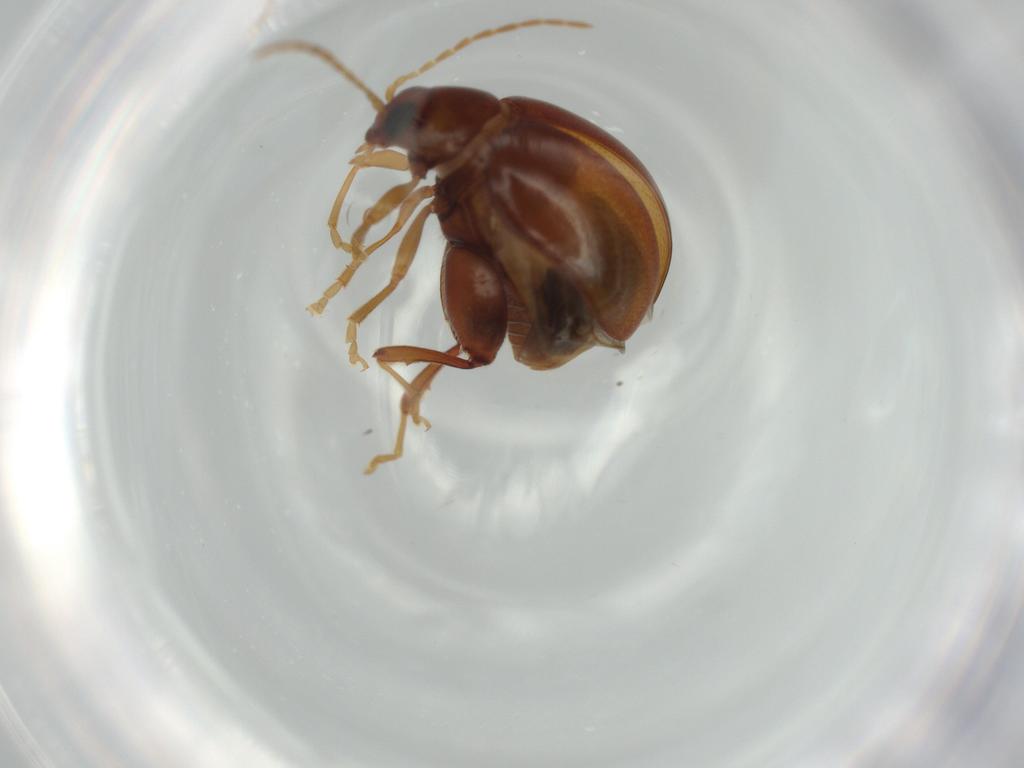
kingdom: Animalia
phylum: Arthropoda
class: Insecta
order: Coleoptera
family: Chrysomelidae
